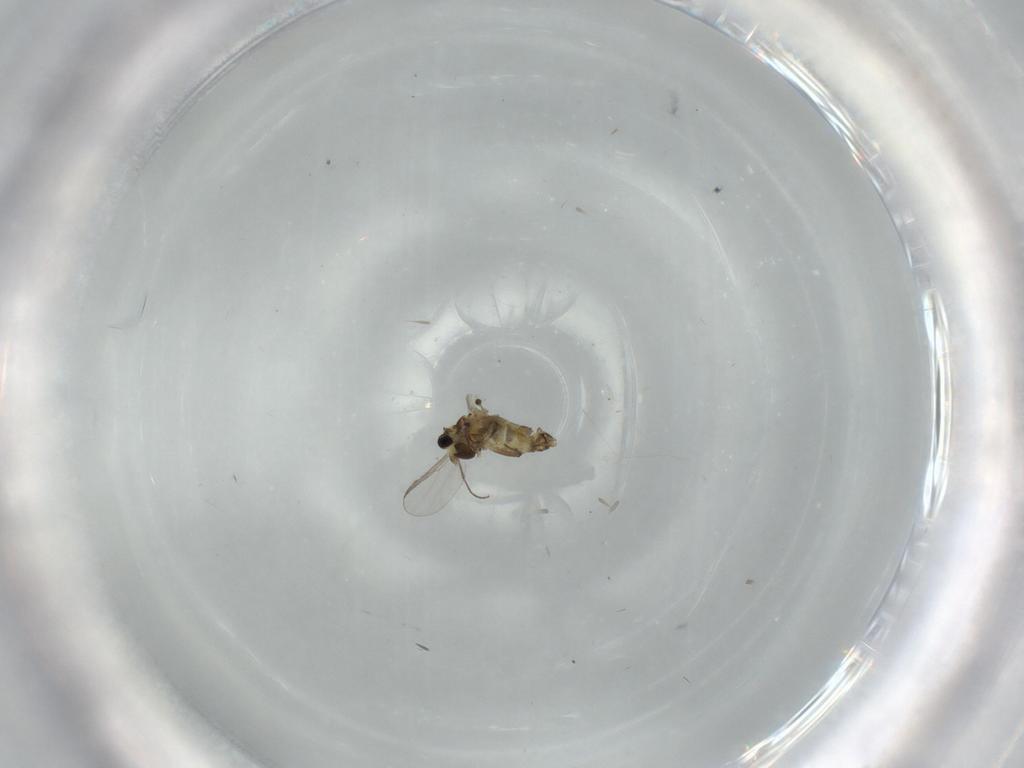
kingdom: Animalia
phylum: Arthropoda
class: Insecta
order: Diptera
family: Chironomidae
